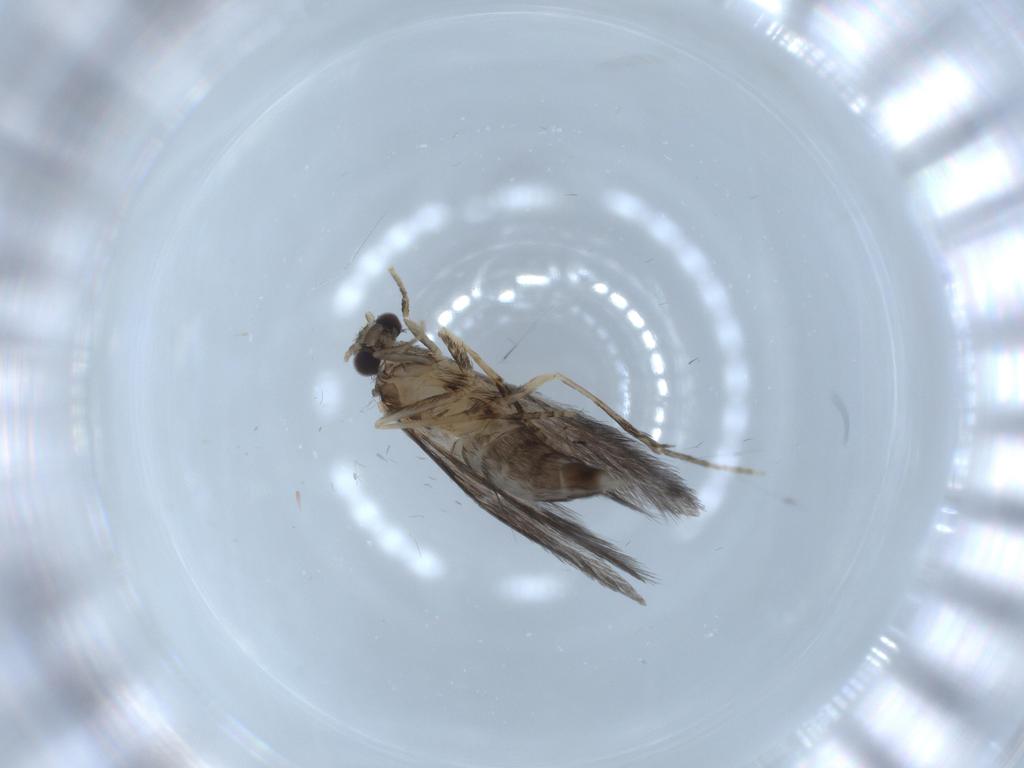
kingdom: Animalia
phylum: Arthropoda
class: Insecta
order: Trichoptera
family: Hydroptilidae
